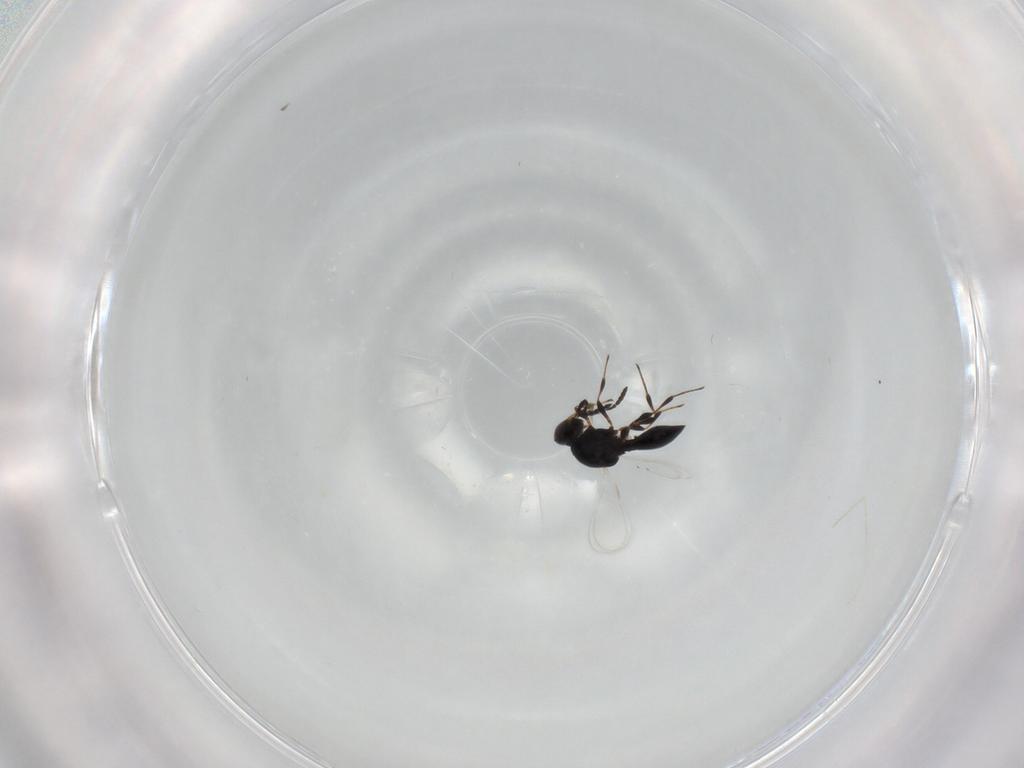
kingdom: Animalia
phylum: Arthropoda
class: Insecta
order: Hymenoptera
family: Platygastridae
